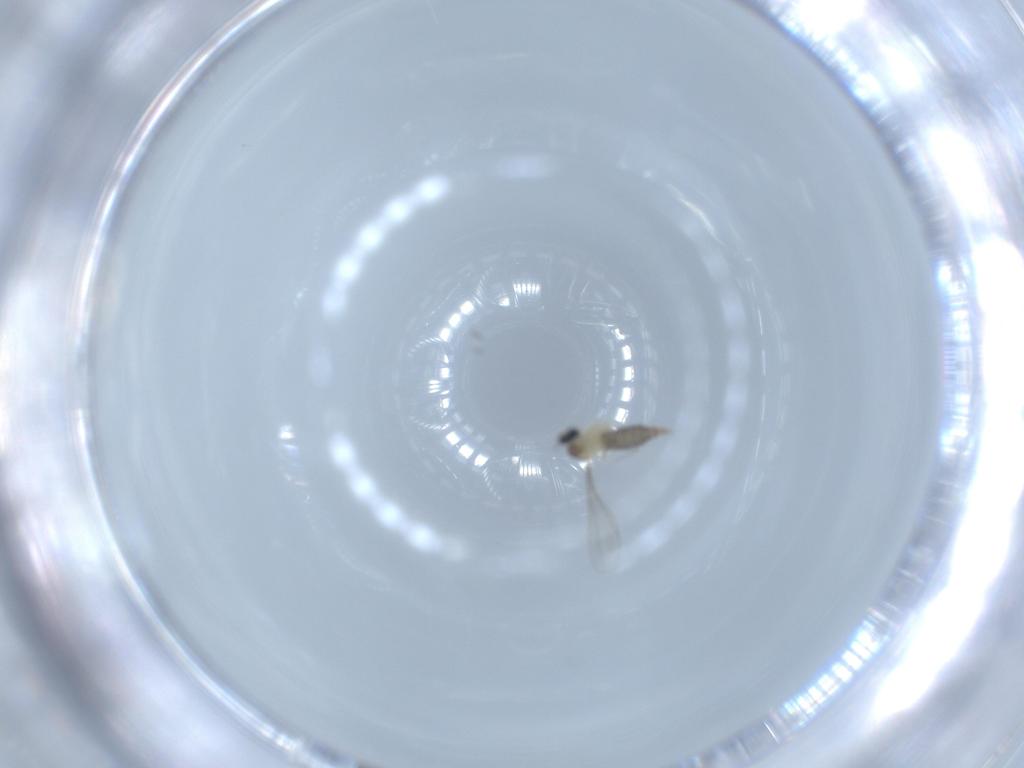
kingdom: Animalia
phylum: Arthropoda
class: Insecta
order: Diptera
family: Cecidomyiidae
